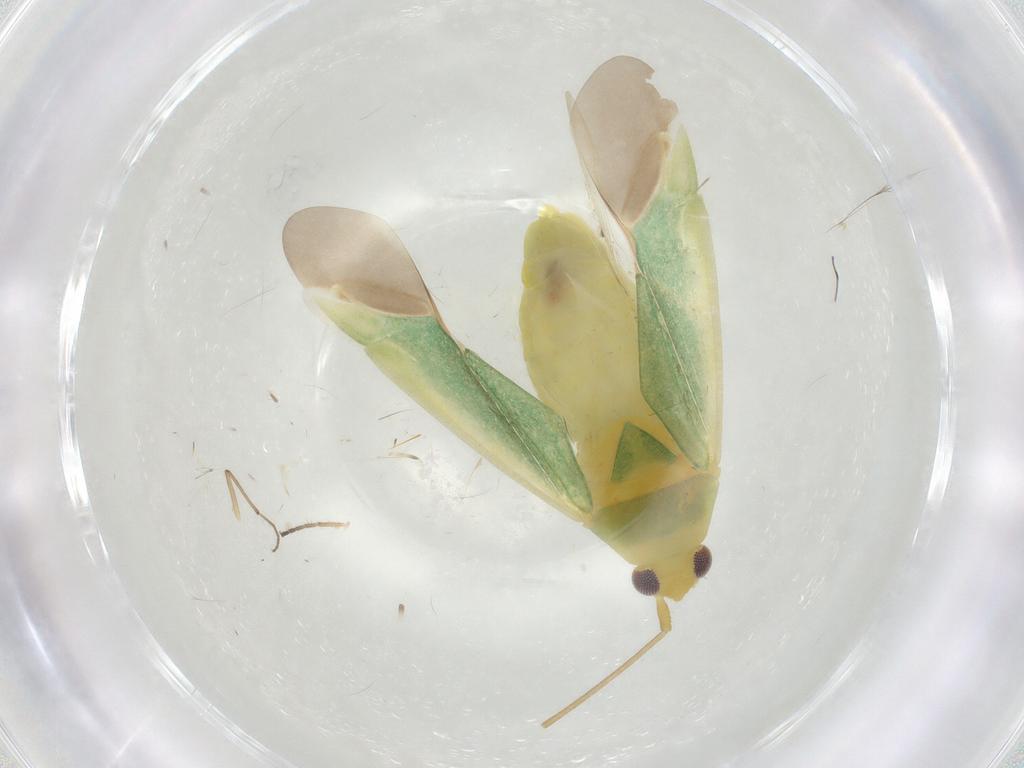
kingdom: Animalia
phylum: Arthropoda
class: Insecta
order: Hemiptera
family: Miridae
